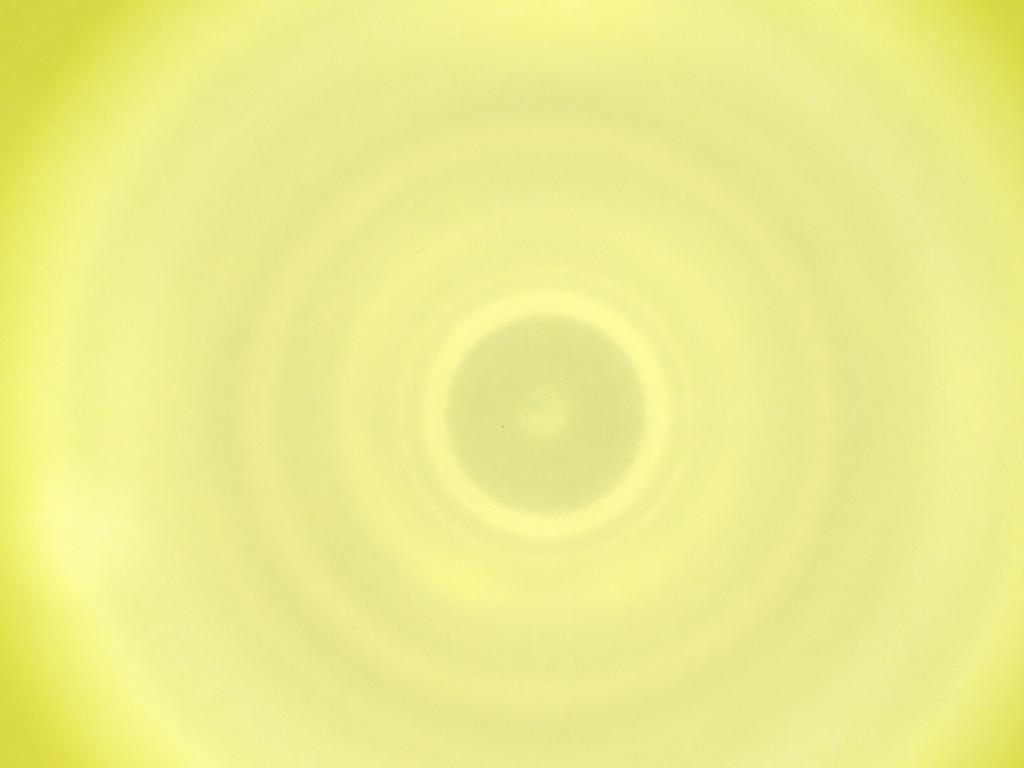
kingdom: Animalia
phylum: Arthropoda
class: Insecta
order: Diptera
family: Cecidomyiidae
